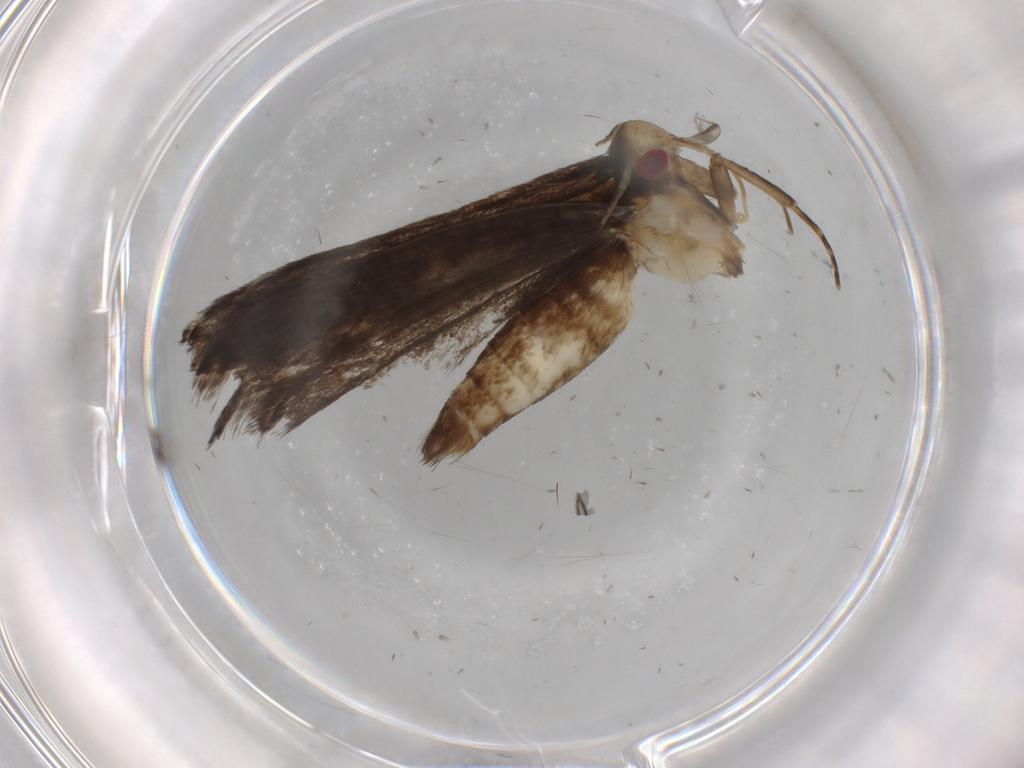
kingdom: Animalia
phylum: Arthropoda
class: Insecta
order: Lepidoptera
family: Gelechiidae
